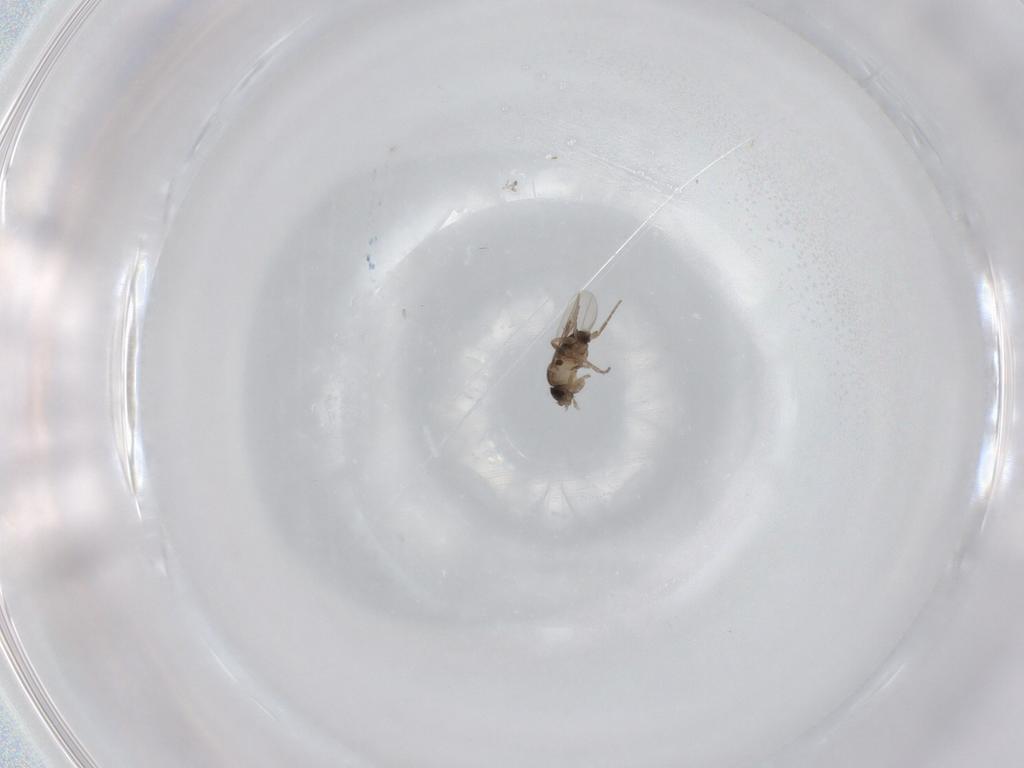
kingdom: Animalia
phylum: Arthropoda
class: Insecta
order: Diptera
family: Phoridae
